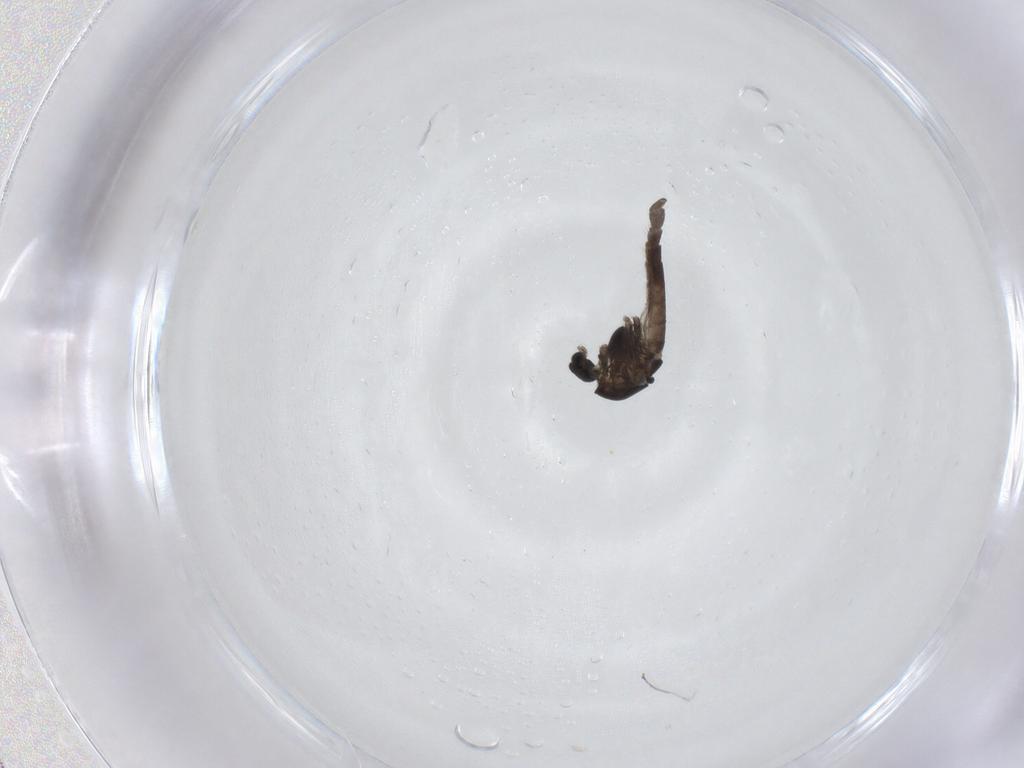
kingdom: Animalia
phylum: Arthropoda
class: Insecta
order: Diptera
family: Chironomidae
